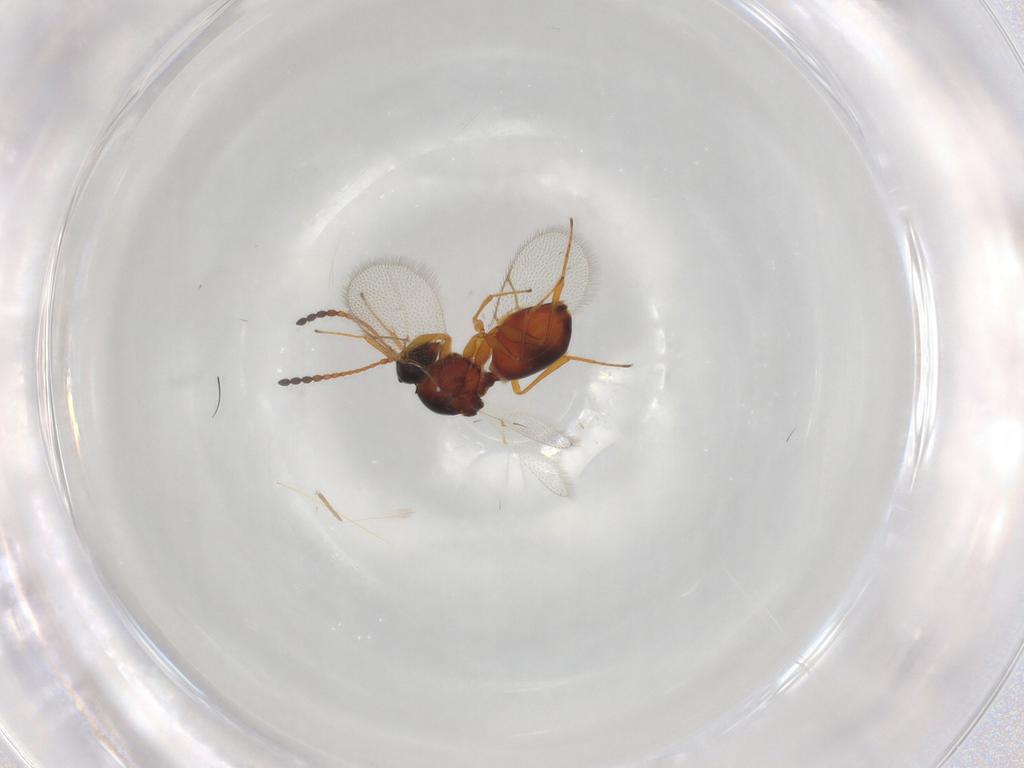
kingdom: Animalia
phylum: Arthropoda
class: Insecta
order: Hymenoptera
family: Figitidae
